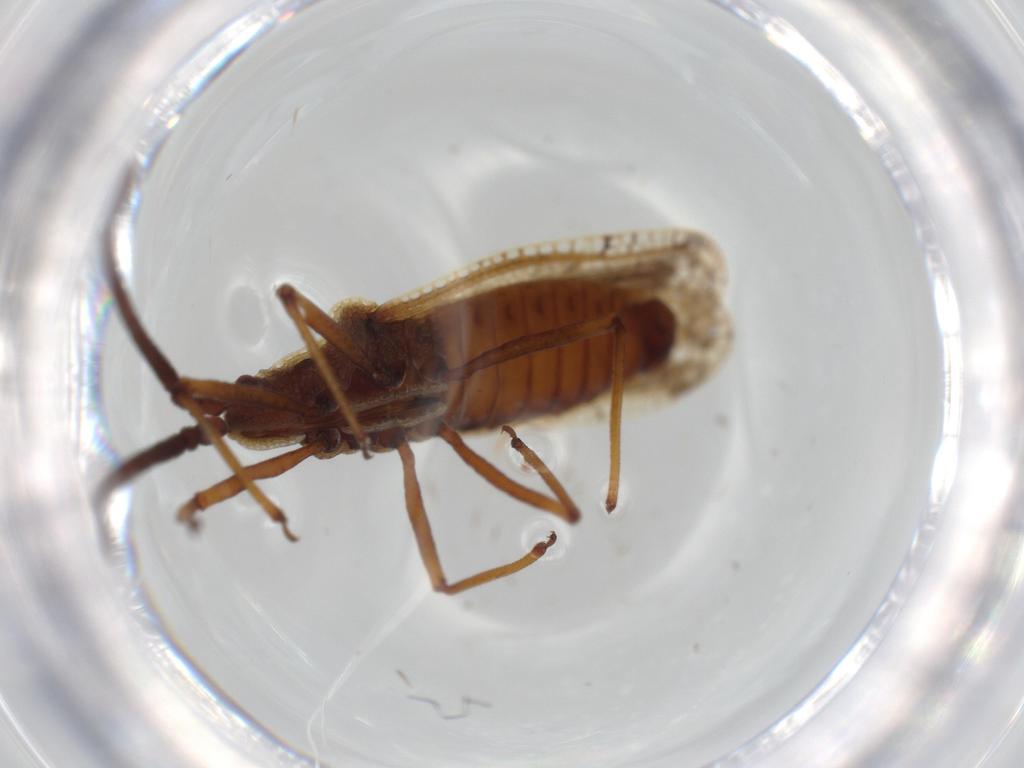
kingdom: Animalia
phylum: Arthropoda
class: Insecta
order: Hemiptera
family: Tingidae
